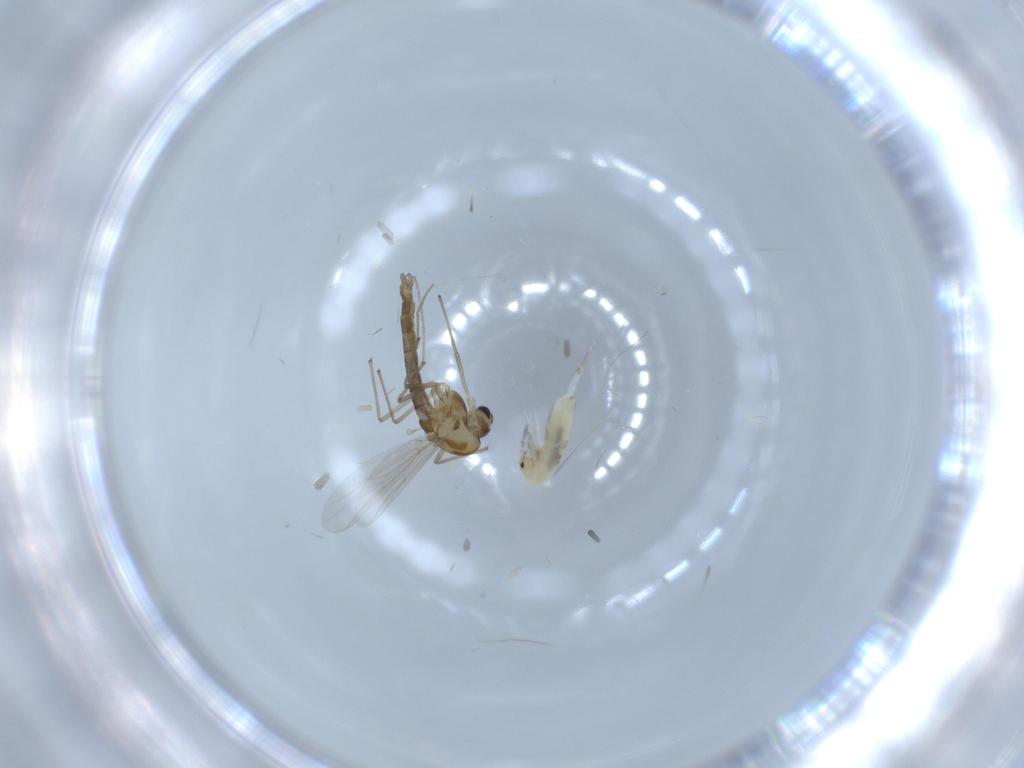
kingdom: Animalia
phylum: Arthropoda
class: Insecta
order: Diptera
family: Chironomidae
